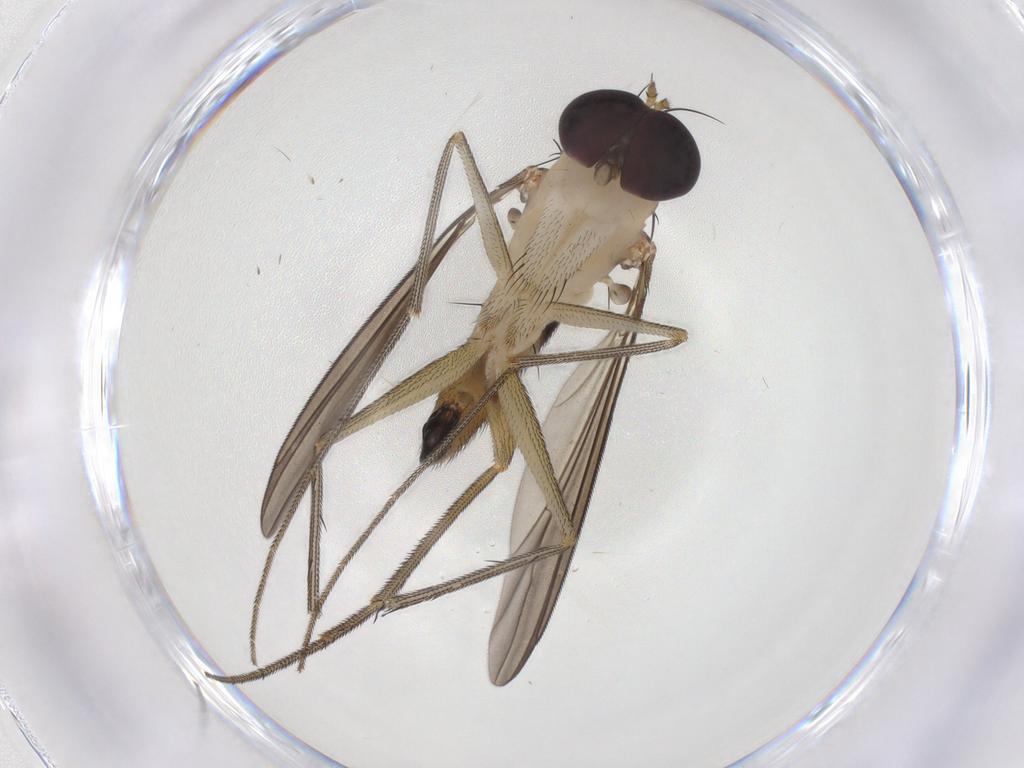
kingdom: Animalia
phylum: Arthropoda
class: Insecta
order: Diptera
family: Dolichopodidae
